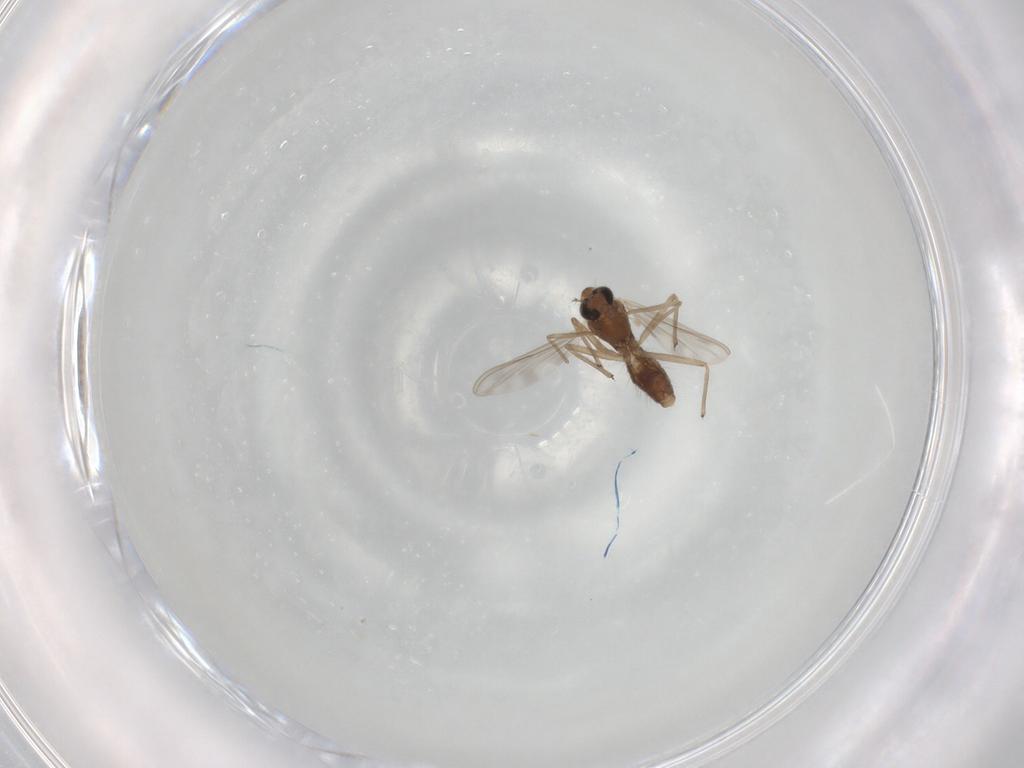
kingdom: Animalia
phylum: Arthropoda
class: Insecta
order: Diptera
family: Chironomidae
